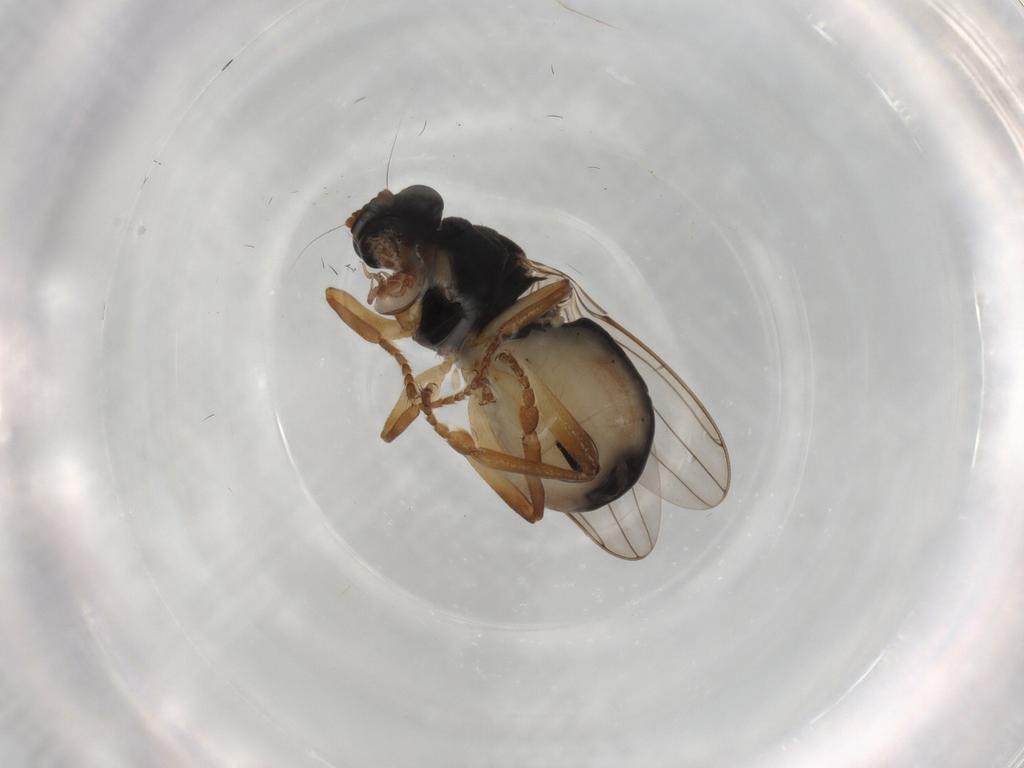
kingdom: Animalia
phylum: Arthropoda
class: Insecta
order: Diptera
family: Sphaeroceridae
